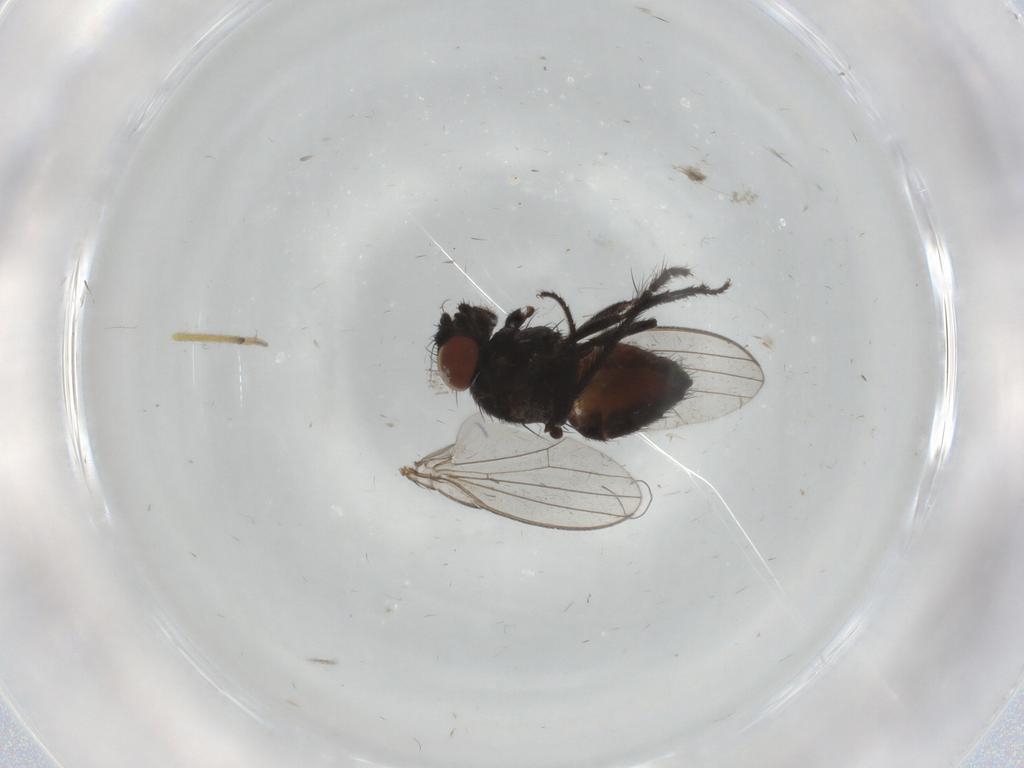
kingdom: Animalia
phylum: Arthropoda
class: Insecta
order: Diptera
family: Milichiidae
